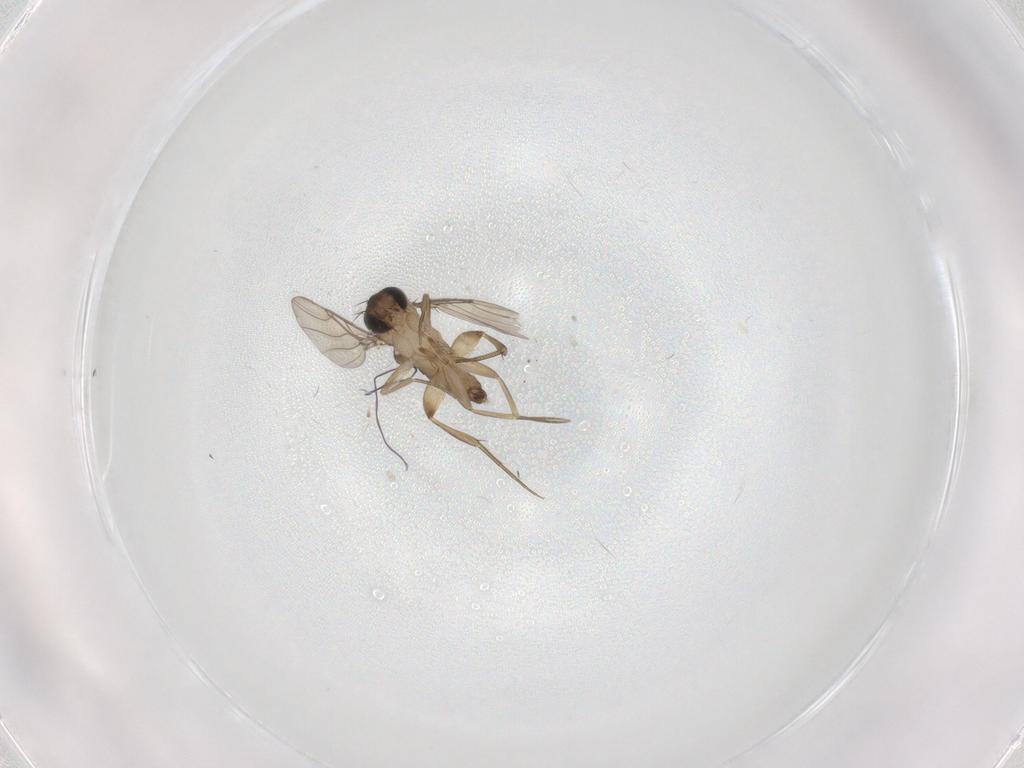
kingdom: Animalia
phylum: Arthropoda
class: Insecta
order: Diptera
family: Phoridae
